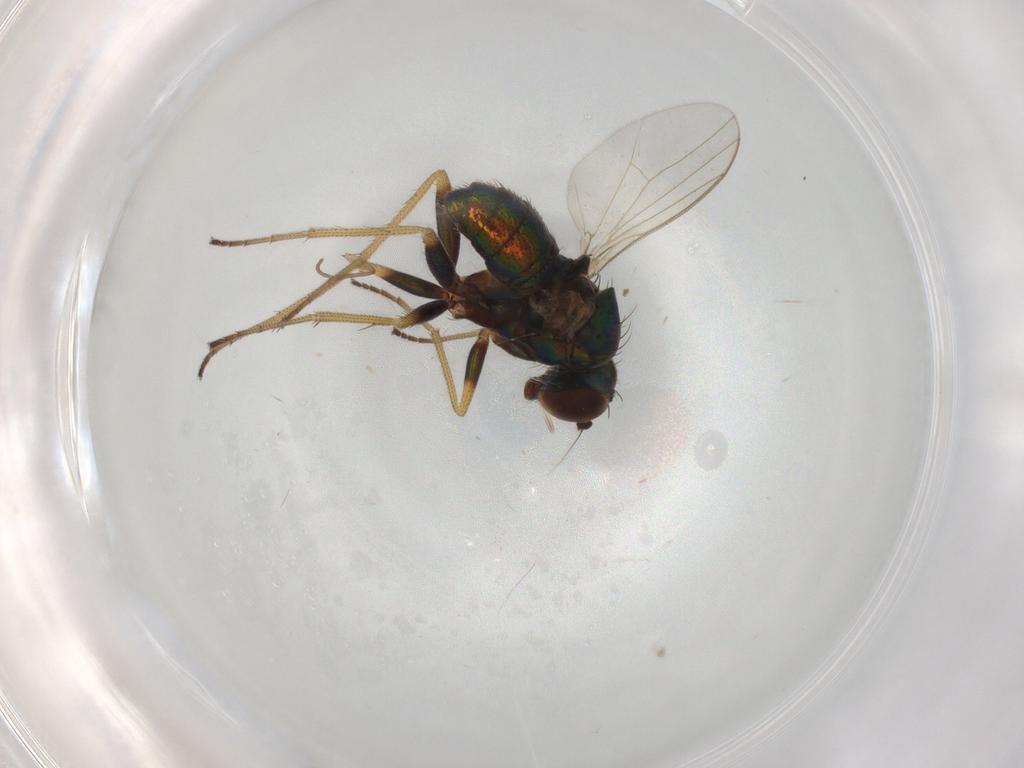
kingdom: Animalia
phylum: Arthropoda
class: Insecta
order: Diptera
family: Dolichopodidae
